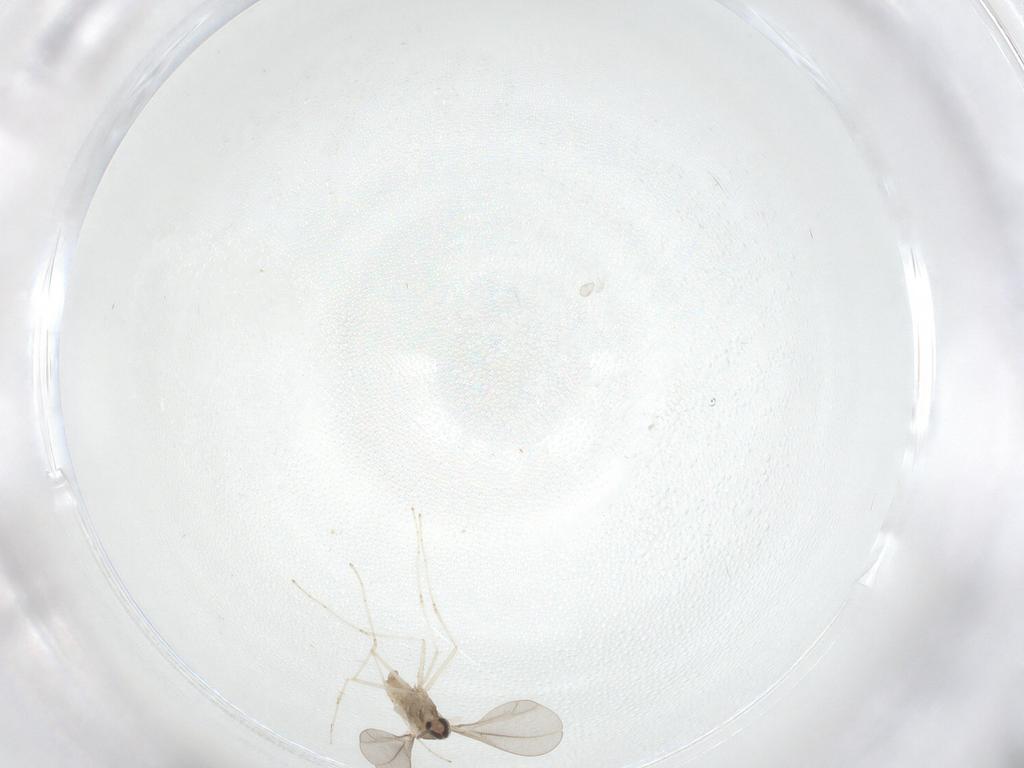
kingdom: Animalia
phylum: Arthropoda
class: Insecta
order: Diptera
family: Cecidomyiidae
